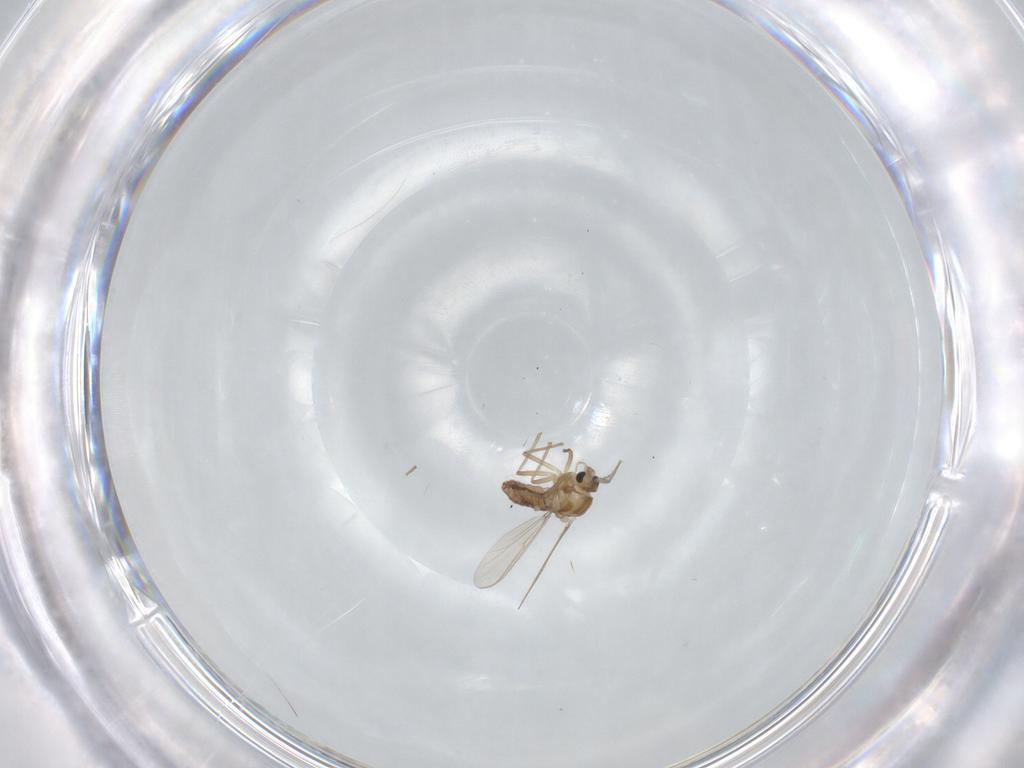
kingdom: Animalia
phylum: Arthropoda
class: Insecta
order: Diptera
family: Chironomidae
